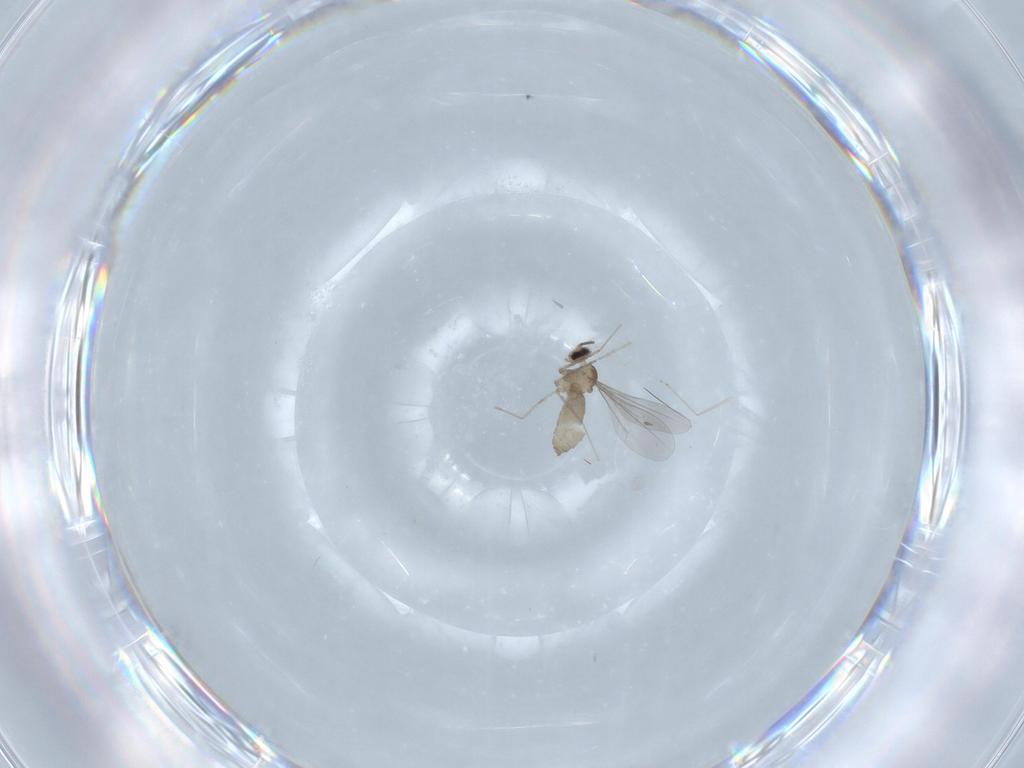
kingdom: Animalia
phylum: Arthropoda
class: Insecta
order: Diptera
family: Cecidomyiidae
